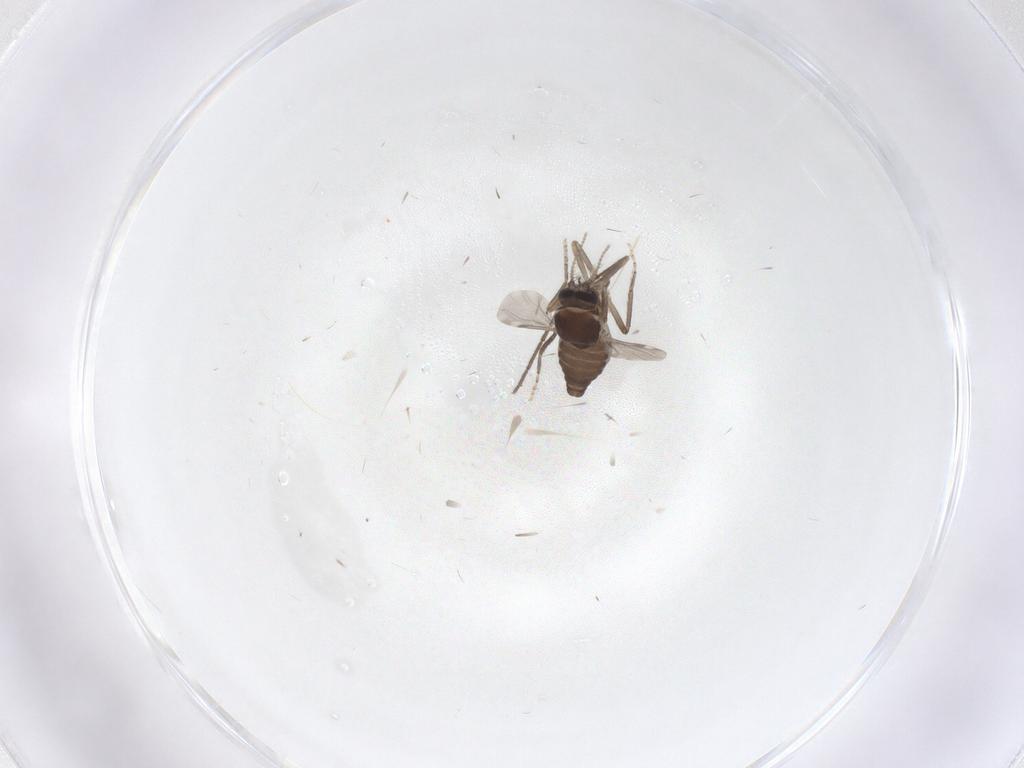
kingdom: Animalia
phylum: Arthropoda
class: Insecta
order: Diptera
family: Ceratopogonidae
